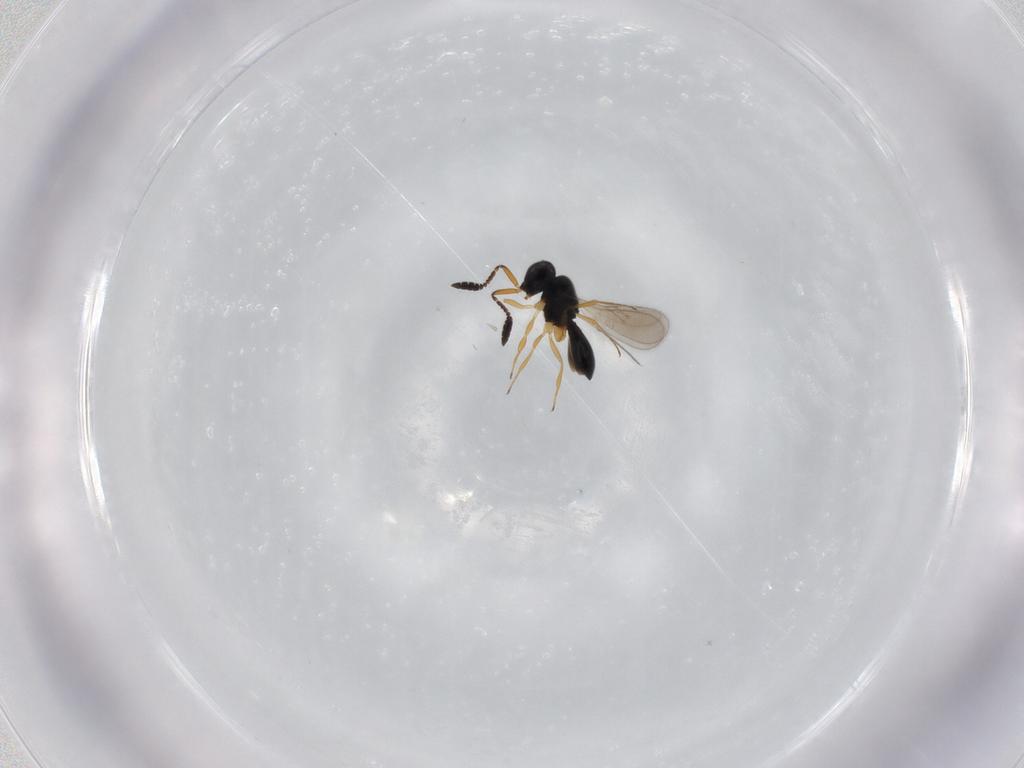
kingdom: Animalia
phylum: Arthropoda
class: Insecta
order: Hymenoptera
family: Scelionidae
